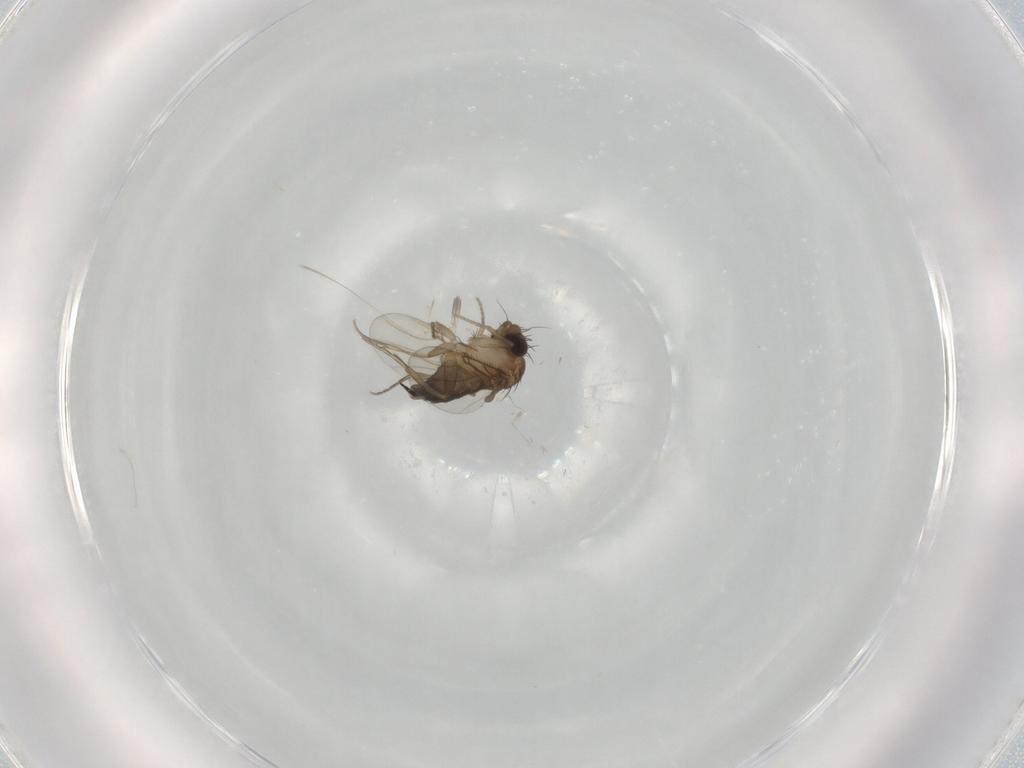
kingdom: Animalia
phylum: Arthropoda
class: Insecta
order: Diptera
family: Phoridae
